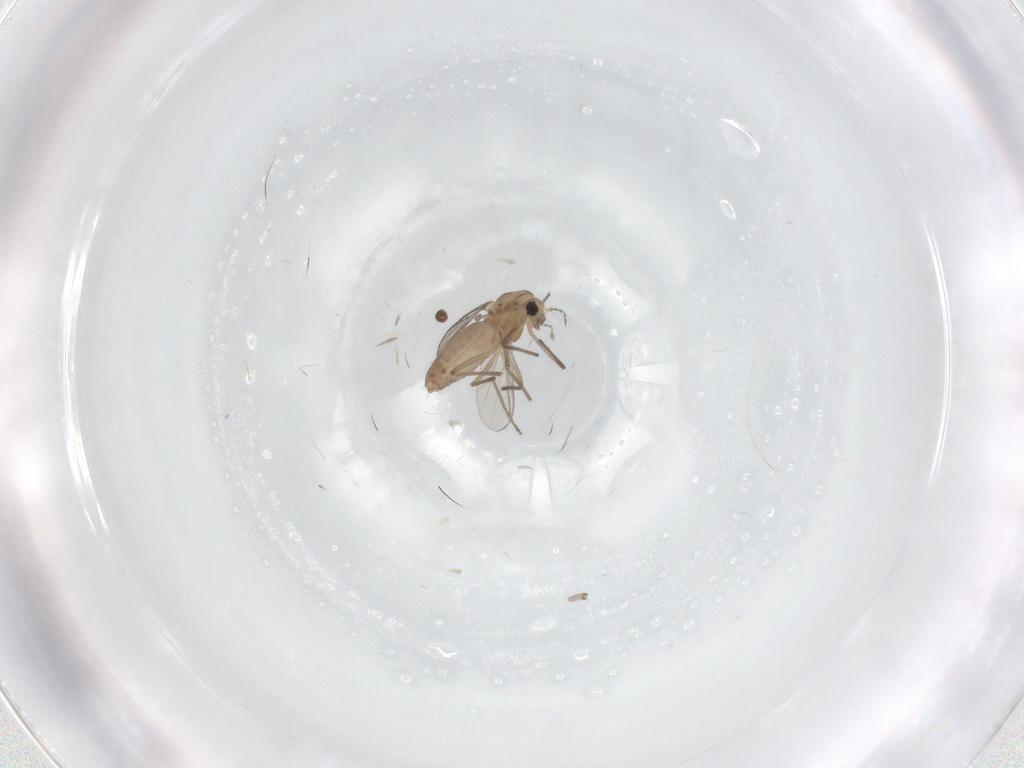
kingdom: Animalia
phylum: Arthropoda
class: Insecta
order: Diptera
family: Chironomidae
